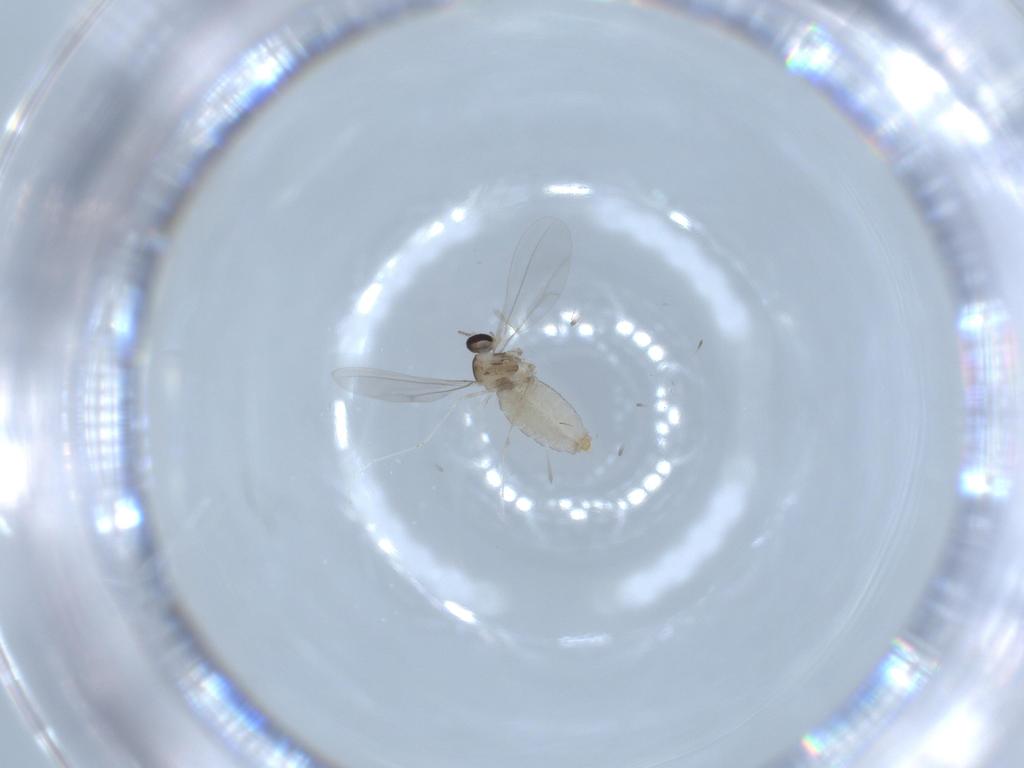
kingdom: Animalia
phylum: Arthropoda
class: Insecta
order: Diptera
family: Cecidomyiidae
